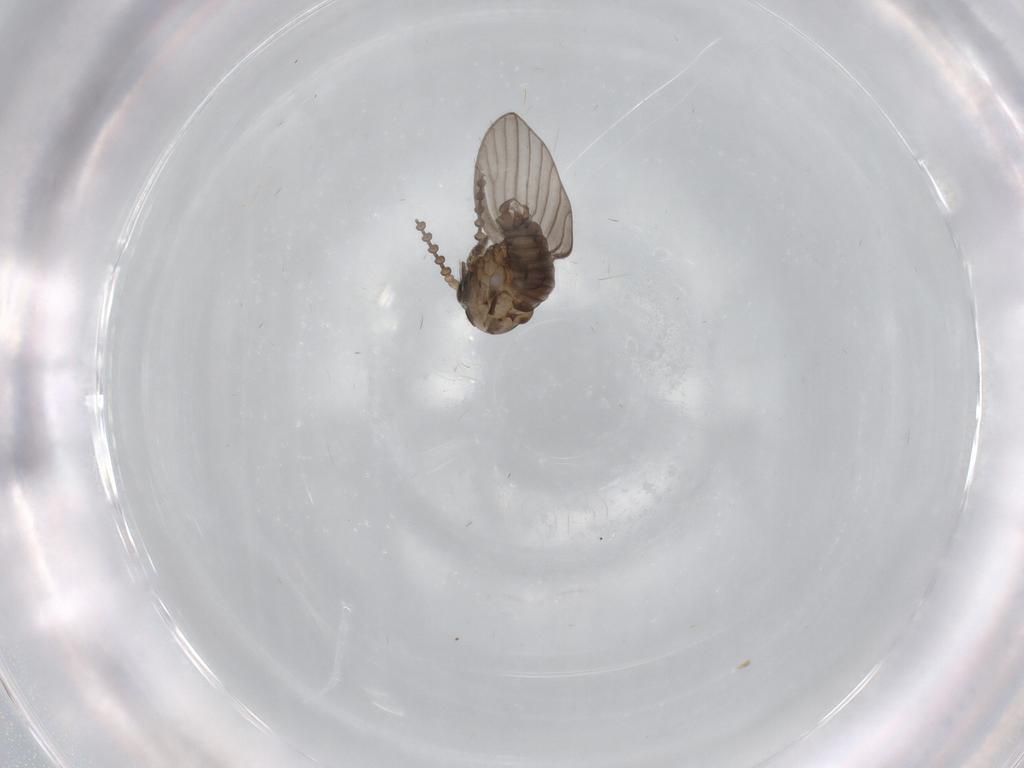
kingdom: Animalia
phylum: Arthropoda
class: Insecta
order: Diptera
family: Psychodidae
